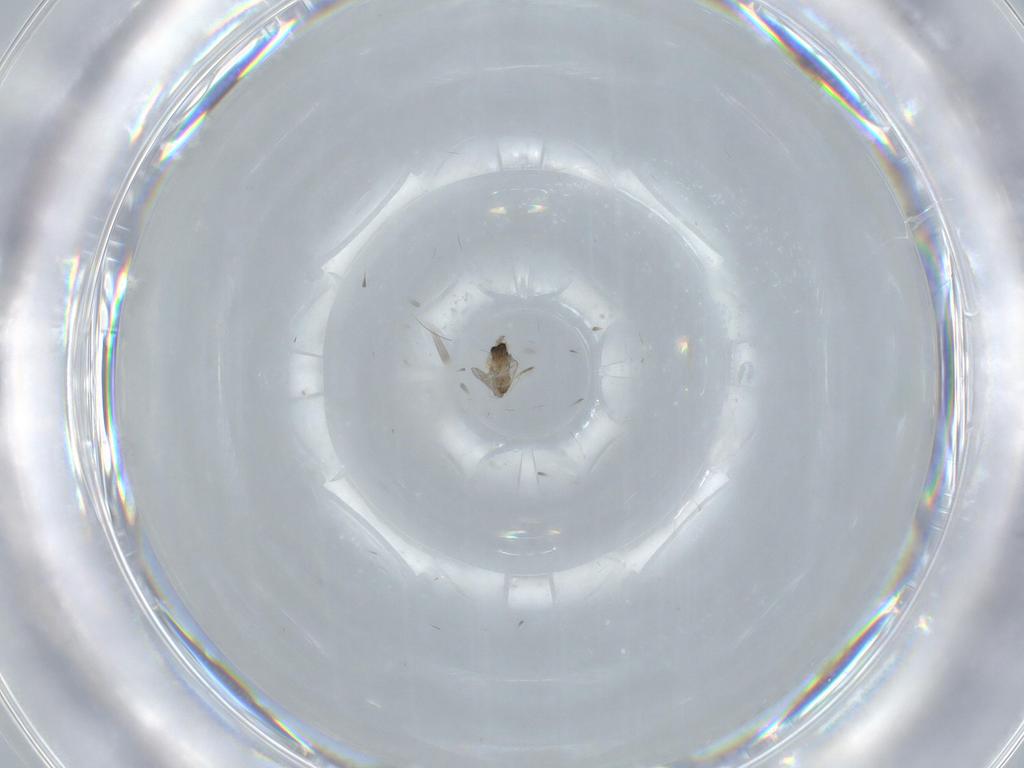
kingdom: Animalia
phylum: Arthropoda
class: Insecta
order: Diptera
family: Cecidomyiidae
